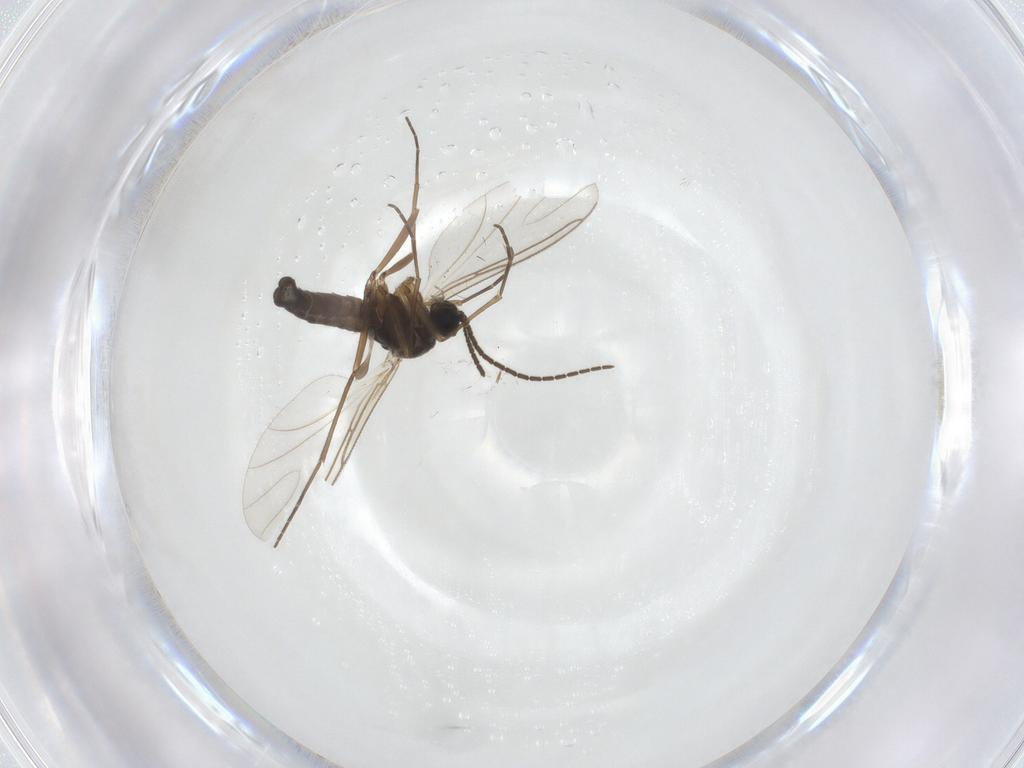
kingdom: Animalia
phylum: Arthropoda
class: Insecta
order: Diptera
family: Sciaridae
